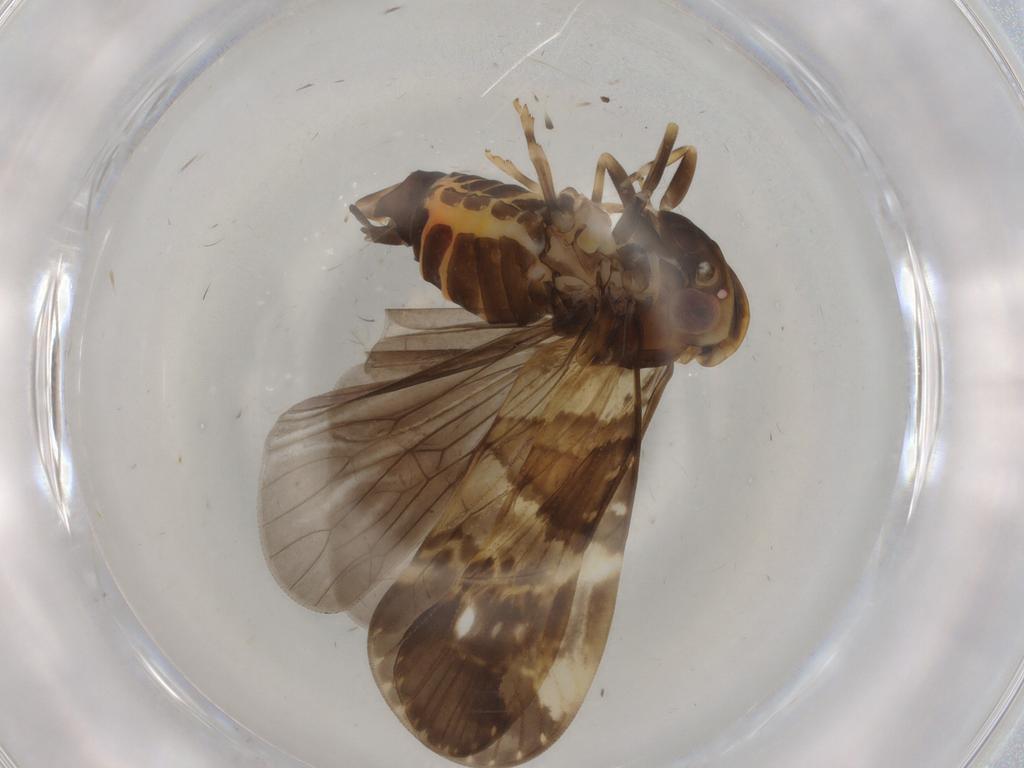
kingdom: Animalia
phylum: Arthropoda
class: Insecta
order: Hemiptera
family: Cixiidae
